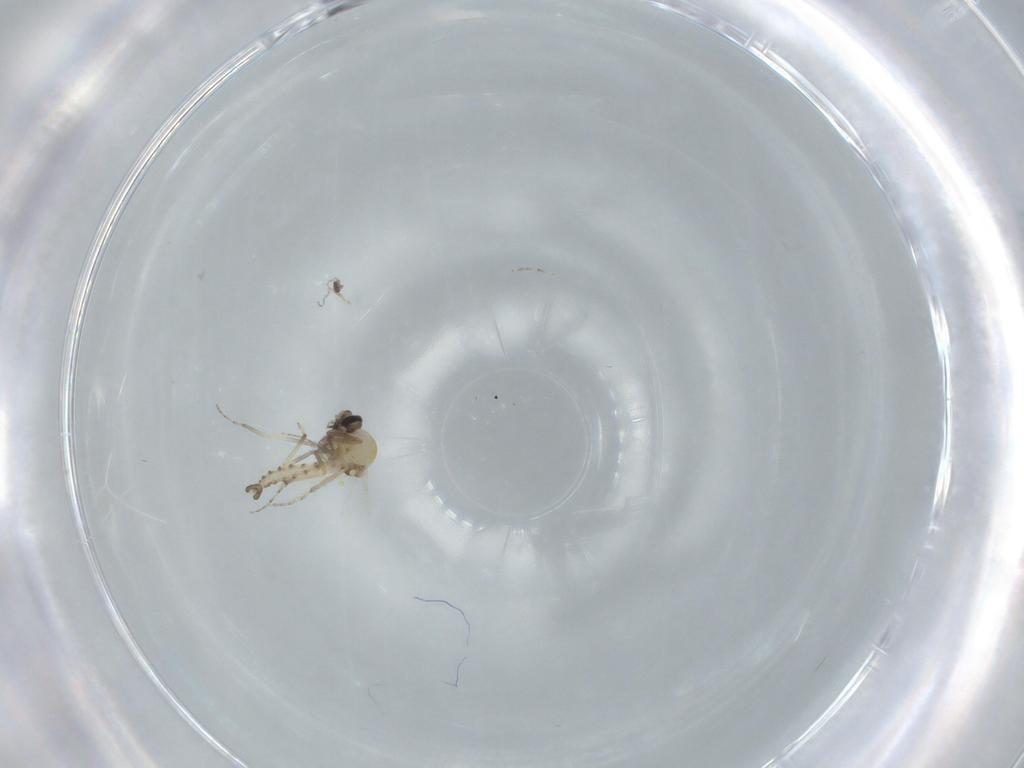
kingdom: Animalia
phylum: Arthropoda
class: Insecta
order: Diptera
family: Cecidomyiidae
